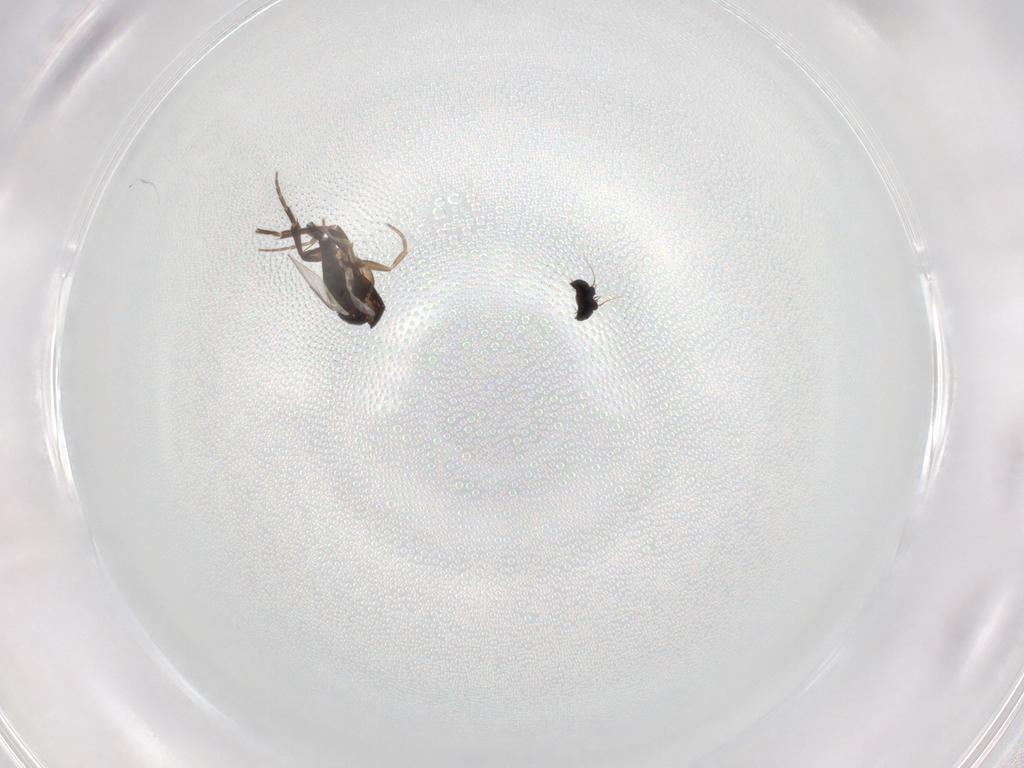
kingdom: Animalia
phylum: Arthropoda
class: Insecta
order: Diptera
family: Phoridae
